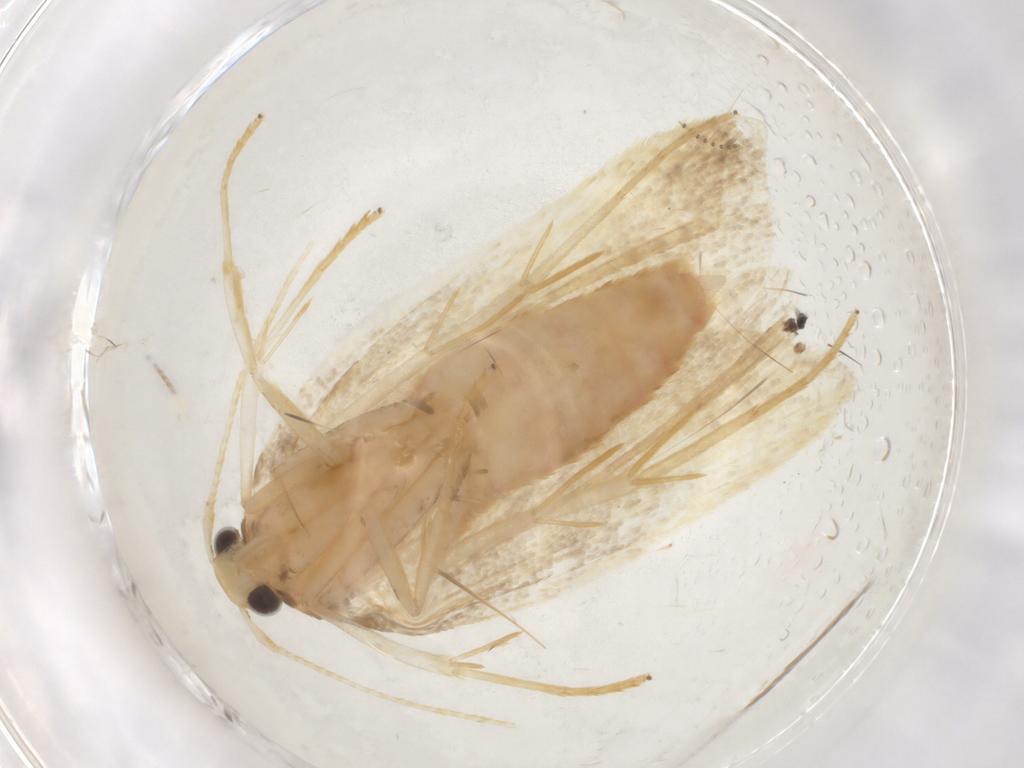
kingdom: Animalia
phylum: Arthropoda
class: Insecta
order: Lepidoptera
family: Lecithoceridae
